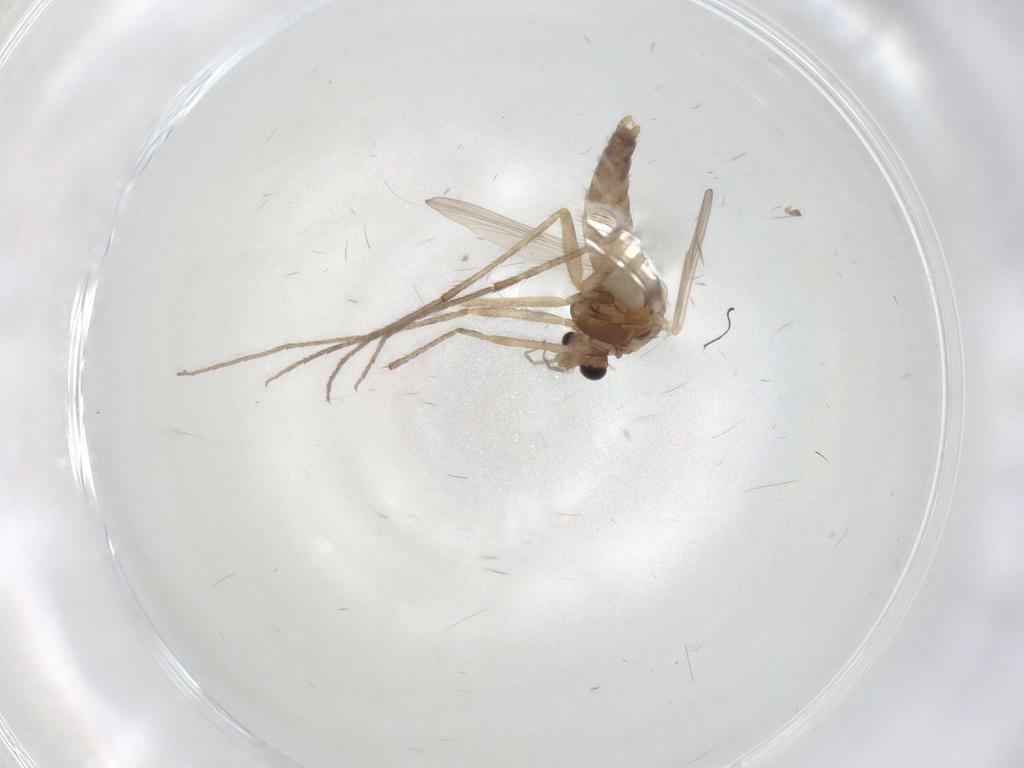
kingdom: Animalia
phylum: Arthropoda
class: Insecta
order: Diptera
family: Chironomidae
